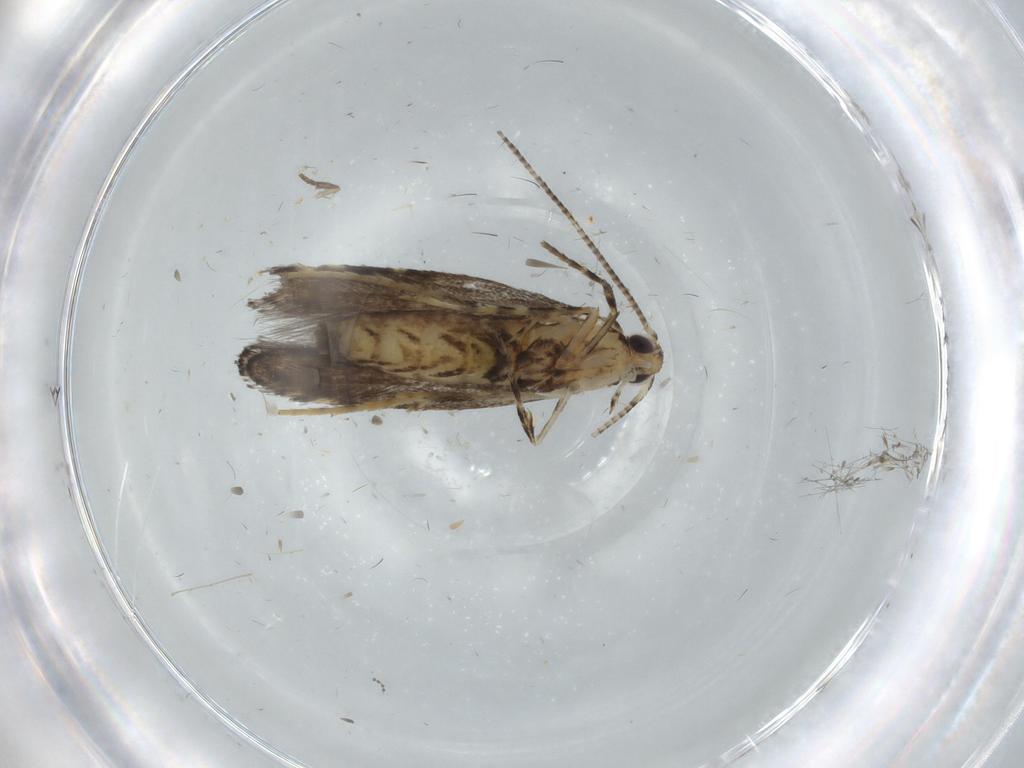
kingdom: Animalia
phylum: Arthropoda
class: Insecta
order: Lepidoptera
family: Gracillariidae
